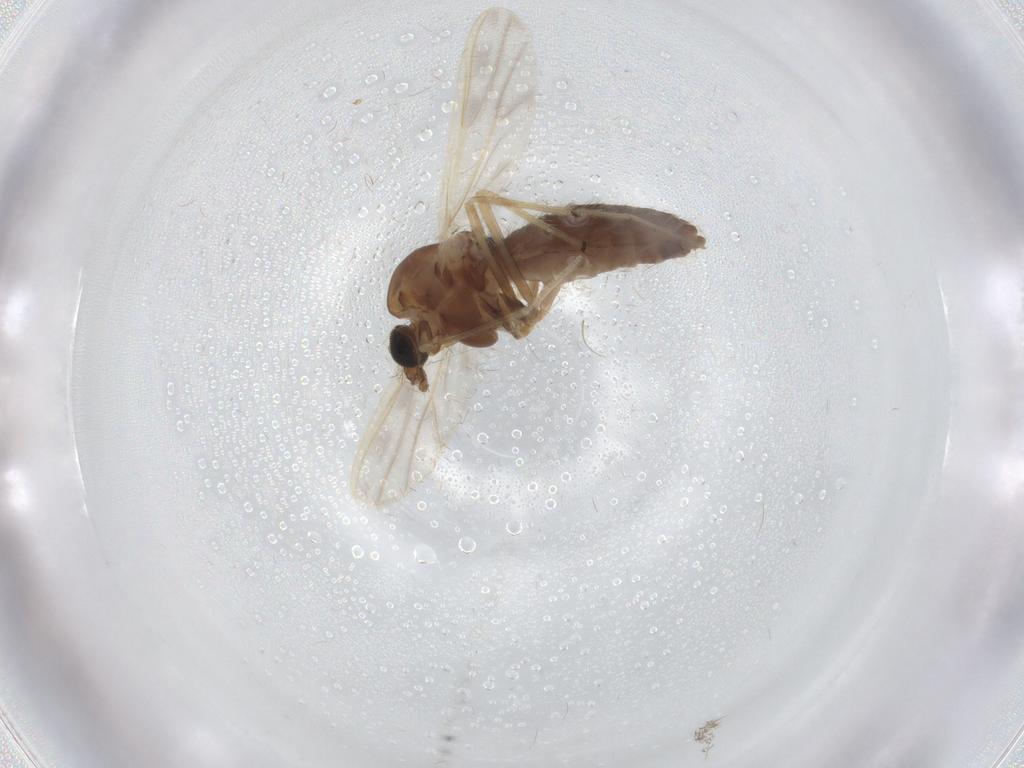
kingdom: Animalia
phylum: Arthropoda
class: Insecta
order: Diptera
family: Chironomidae
